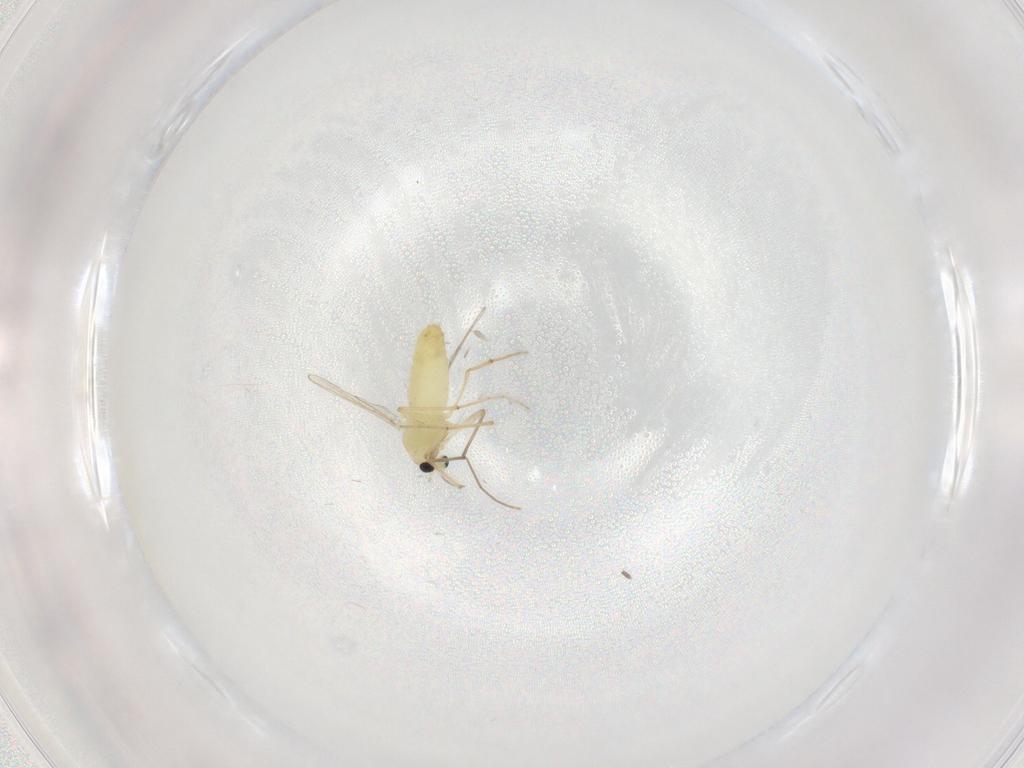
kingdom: Animalia
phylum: Arthropoda
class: Insecta
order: Diptera
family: Chironomidae
